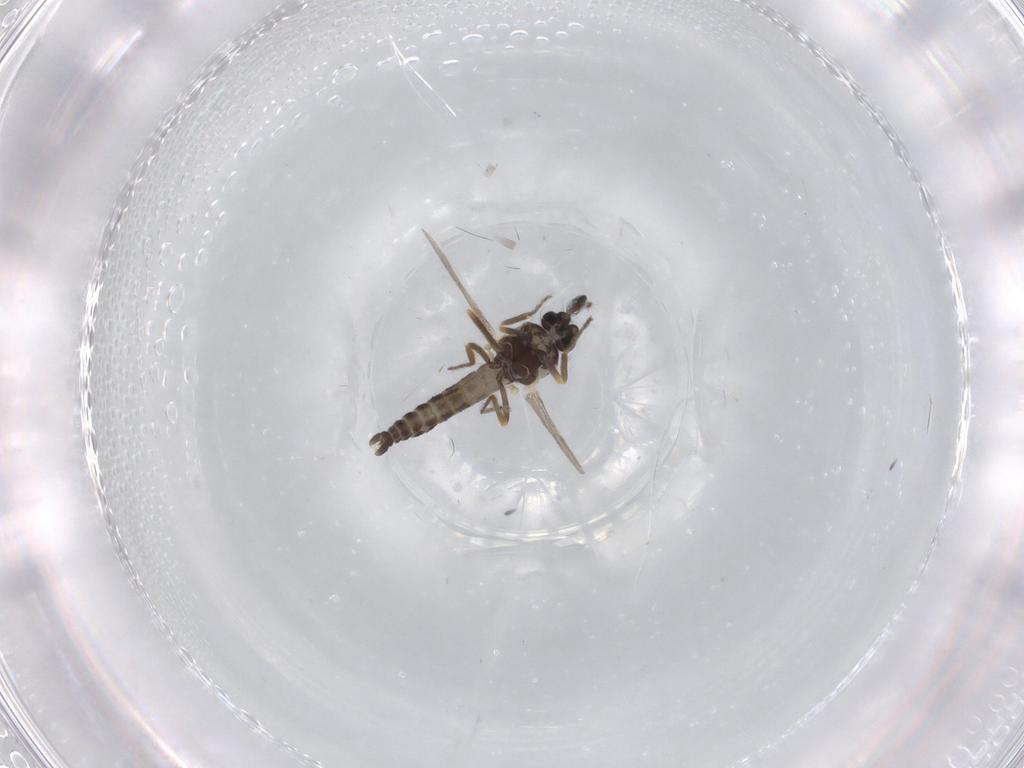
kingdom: Animalia
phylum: Arthropoda
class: Insecta
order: Diptera
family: Ceratopogonidae
